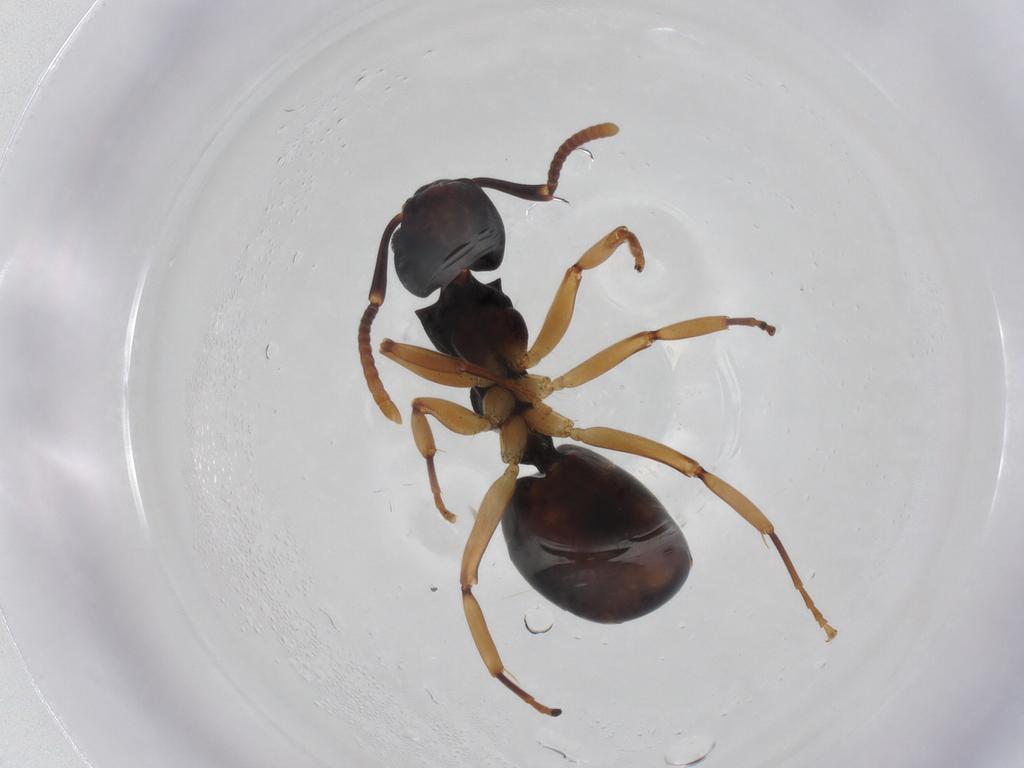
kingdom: Animalia
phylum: Arthropoda
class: Insecta
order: Hymenoptera
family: Formicidae
